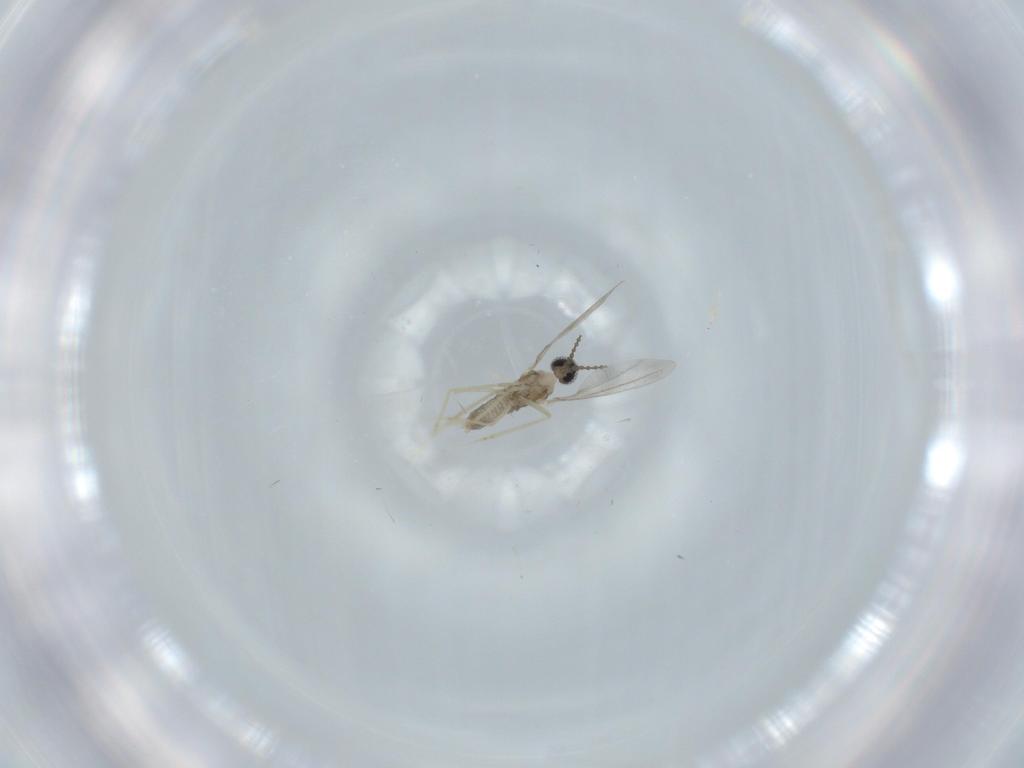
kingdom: Animalia
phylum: Arthropoda
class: Insecta
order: Diptera
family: Cecidomyiidae
